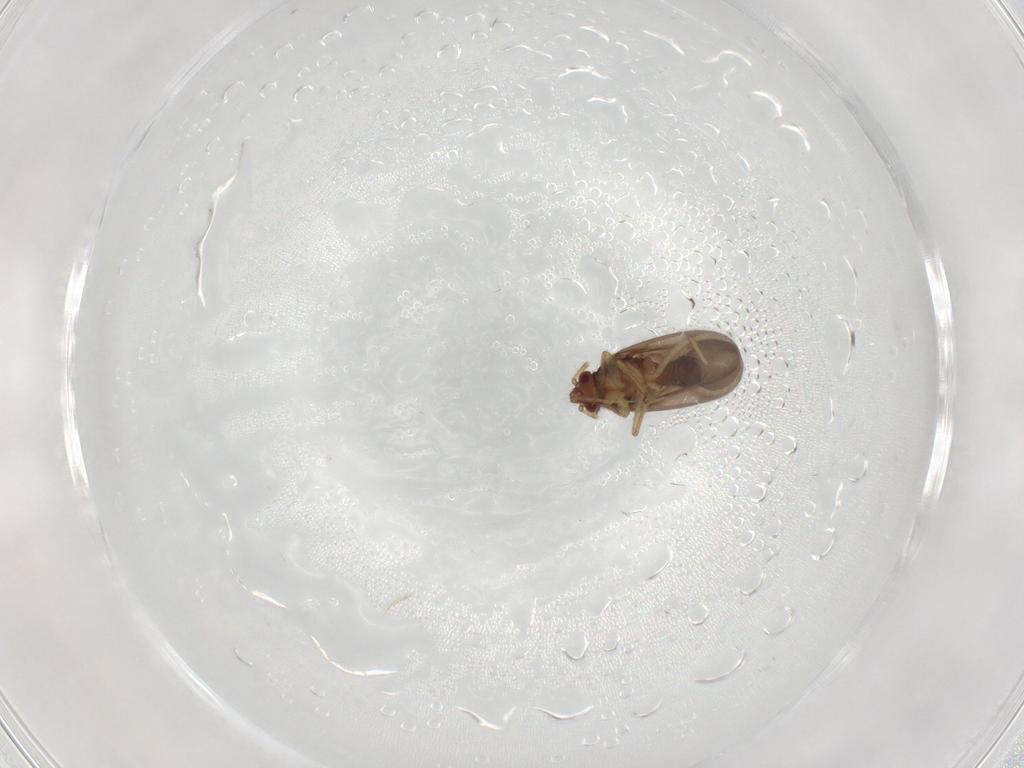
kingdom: Animalia
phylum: Arthropoda
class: Insecta
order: Hemiptera
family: Ceratocombidae
